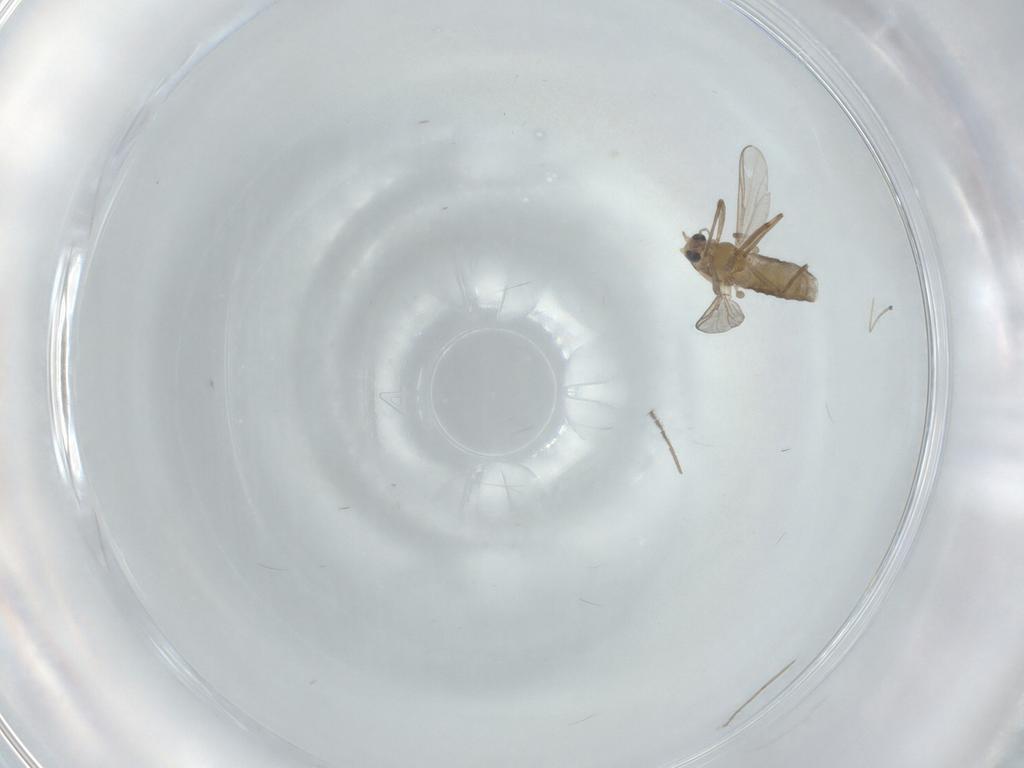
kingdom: Animalia
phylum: Arthropoda
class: Insecta
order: Diptera
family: Chironomidae
